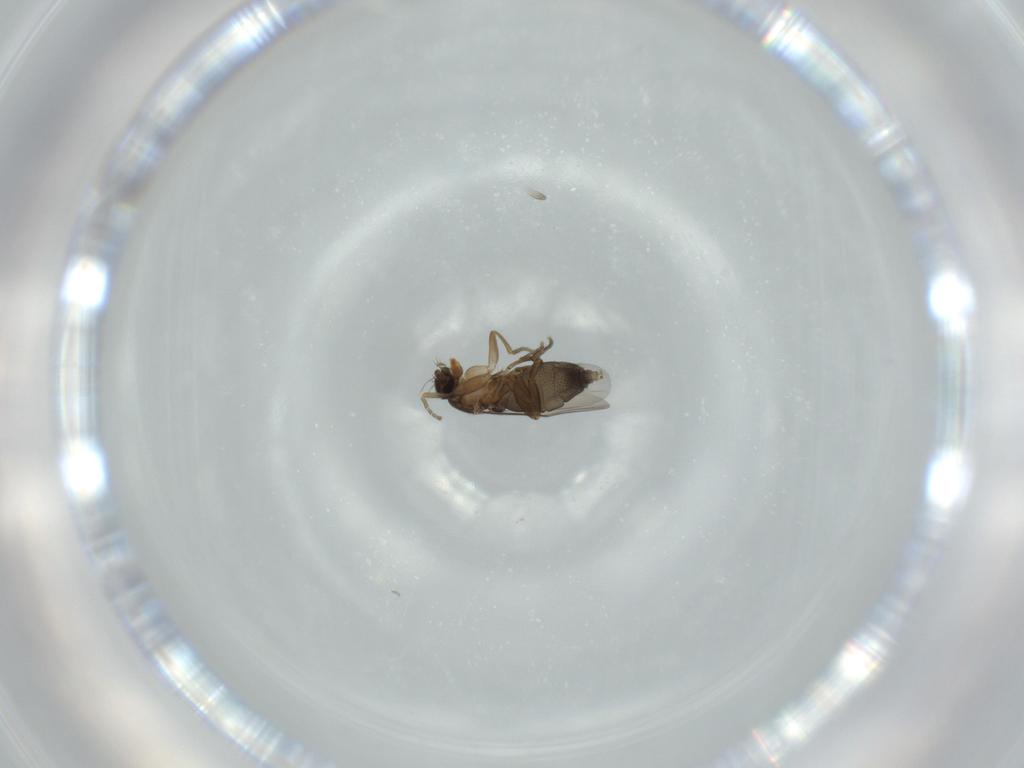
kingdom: Animalia
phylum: Arthropoda
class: Insecta
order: Diptera
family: Phoridae
